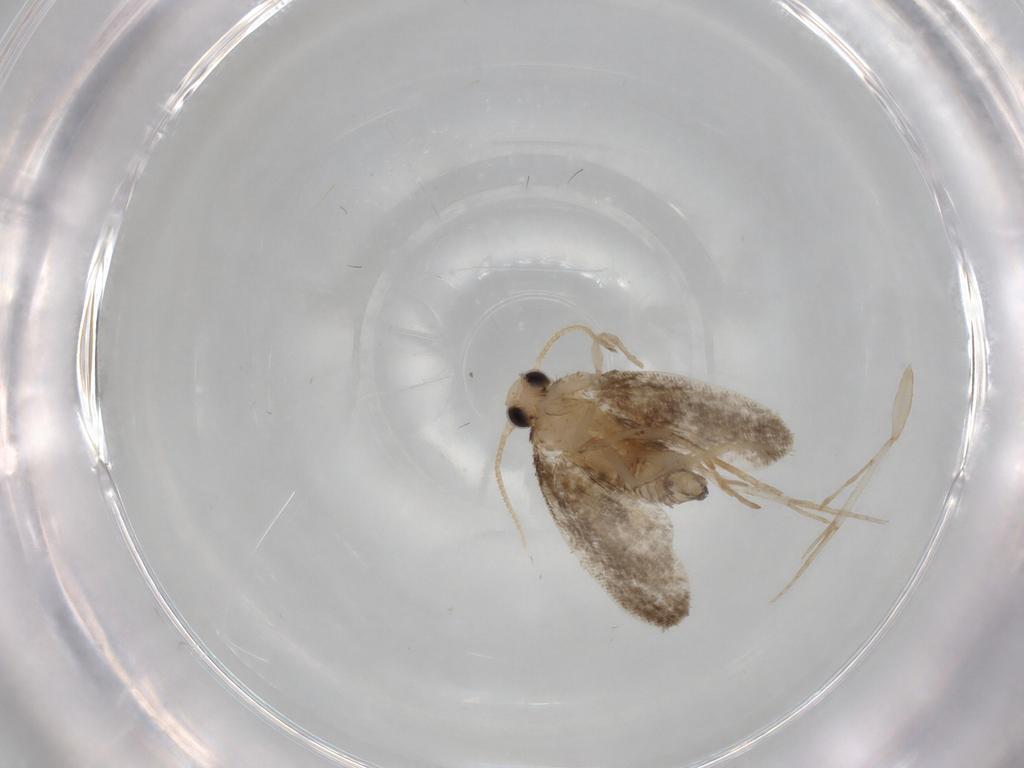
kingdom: Animalia
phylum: Arthropoda
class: Insecta
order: Lepidoptera
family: Psychidae
